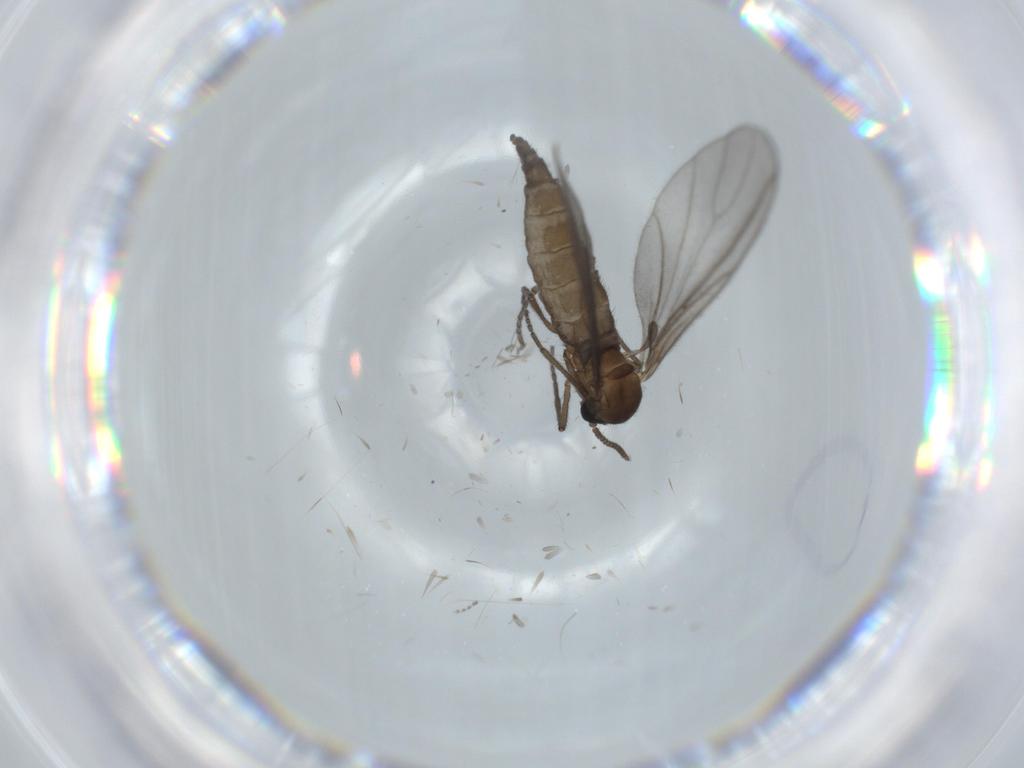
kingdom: Animalia
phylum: Arthropoda
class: Insecta
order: Diptera
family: Sciaridae
